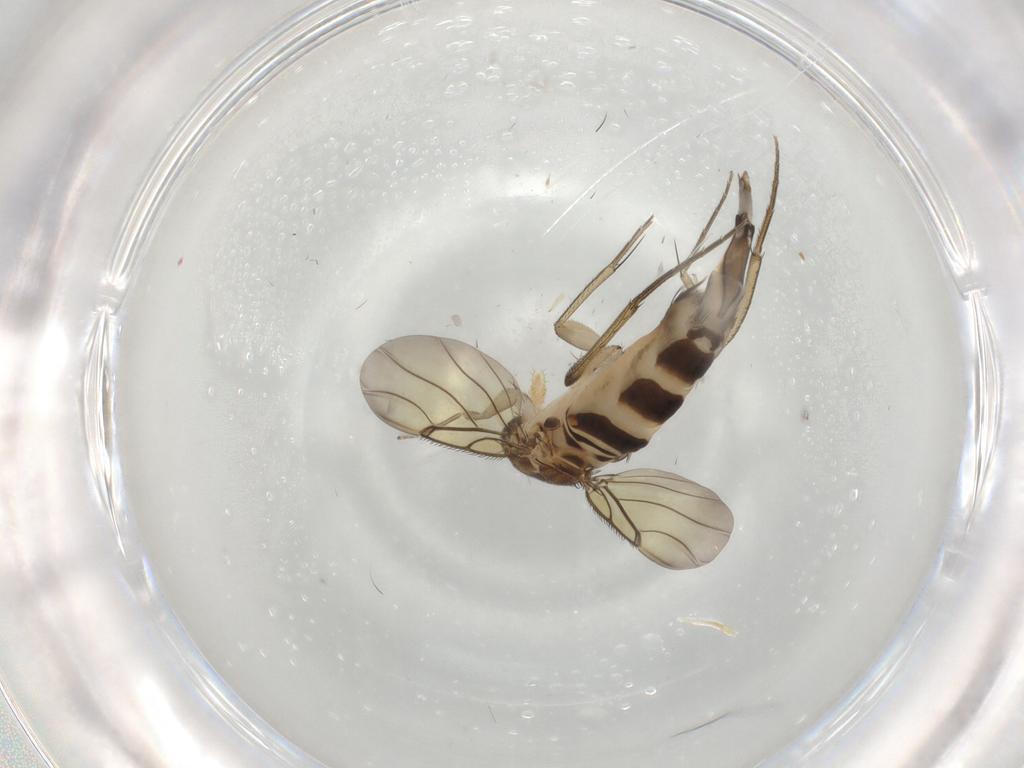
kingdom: Animalia
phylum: Arthropoda
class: Insecta
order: Diptera
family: Phoridae
